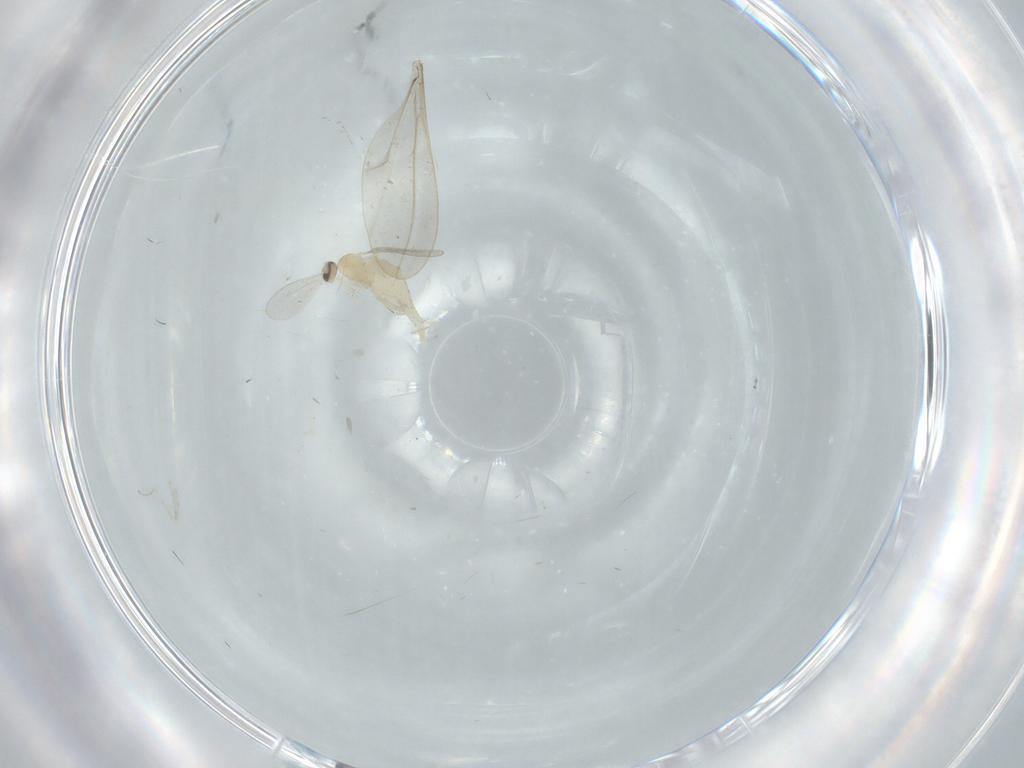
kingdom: Animalia
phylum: Arthropoda
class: Insecta
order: Diptera
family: Cecidomyiidae
